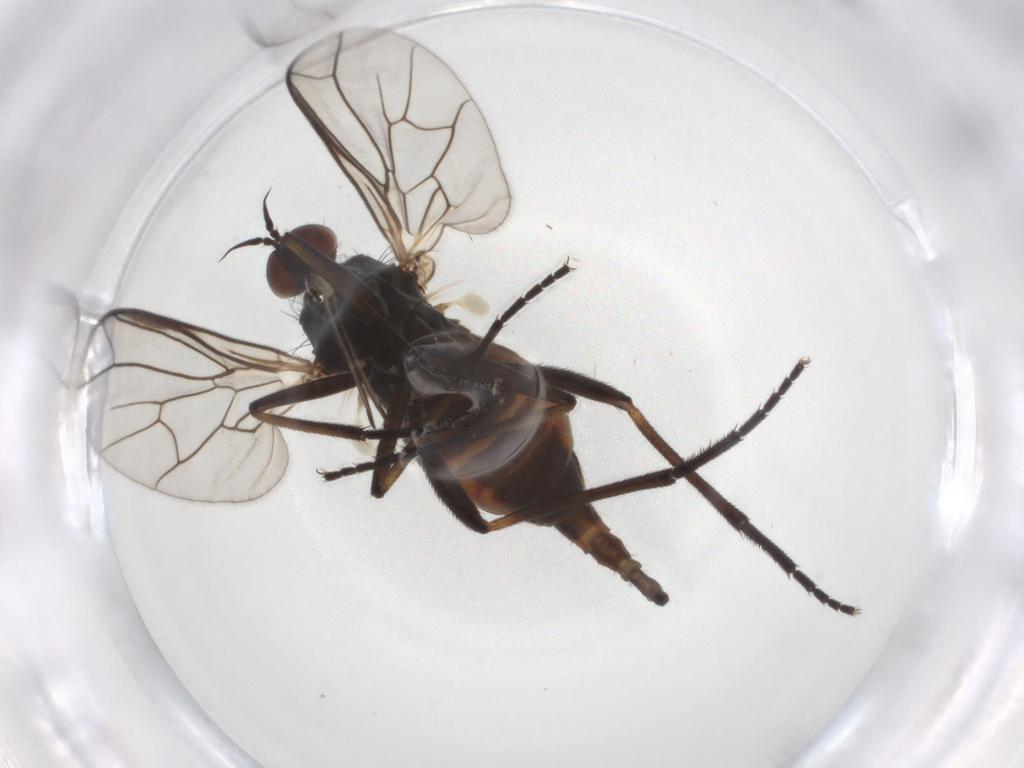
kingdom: Animalia
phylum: Arthropoda
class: Insecta
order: Diptera
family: Empididae
